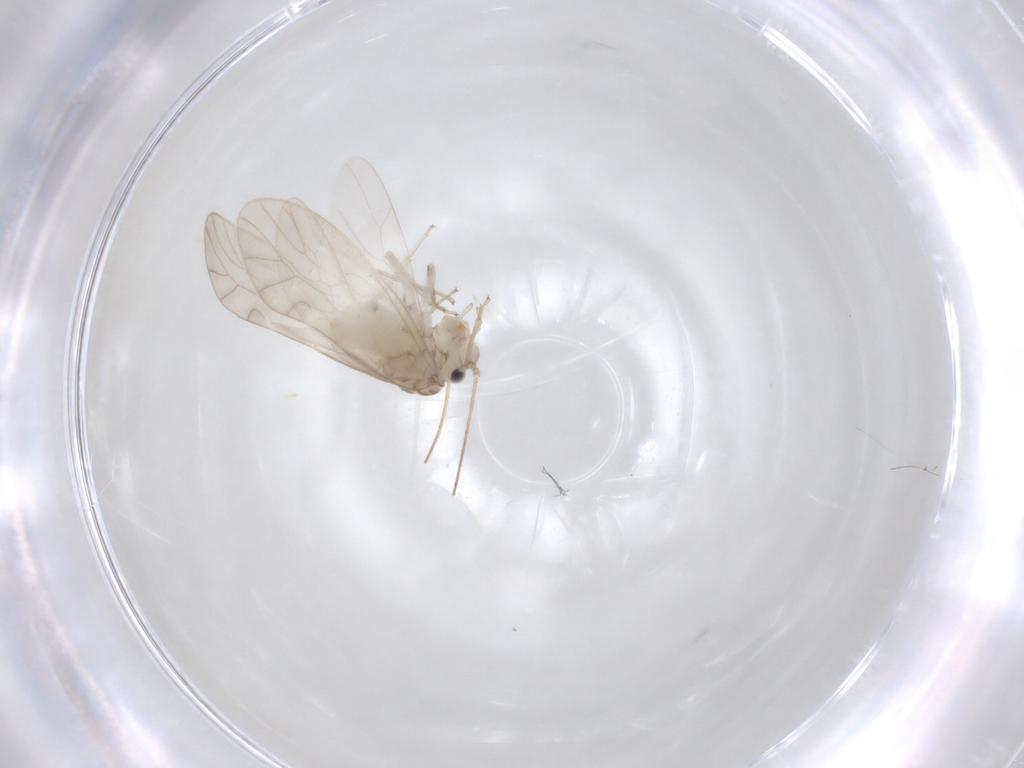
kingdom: Animalia
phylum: Arthropoda
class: Insecta
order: Psocodea
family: Caeciliusidae
